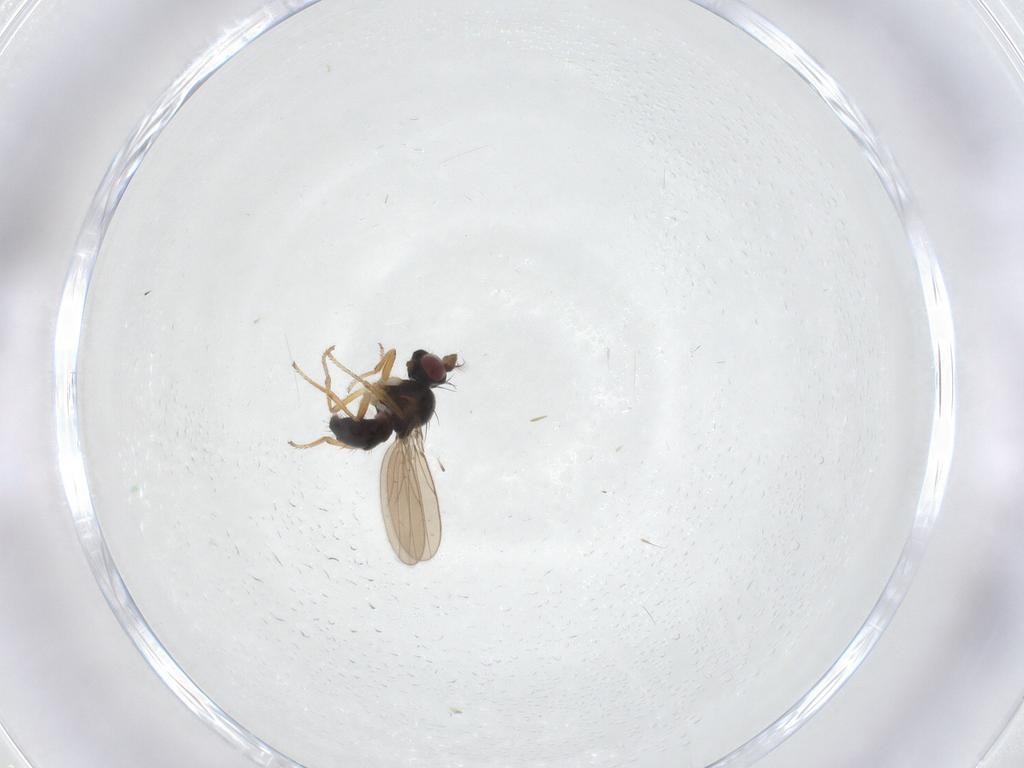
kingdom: Animalia
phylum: Arthropoda
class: Insecta
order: Diptera
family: Ephydridae
